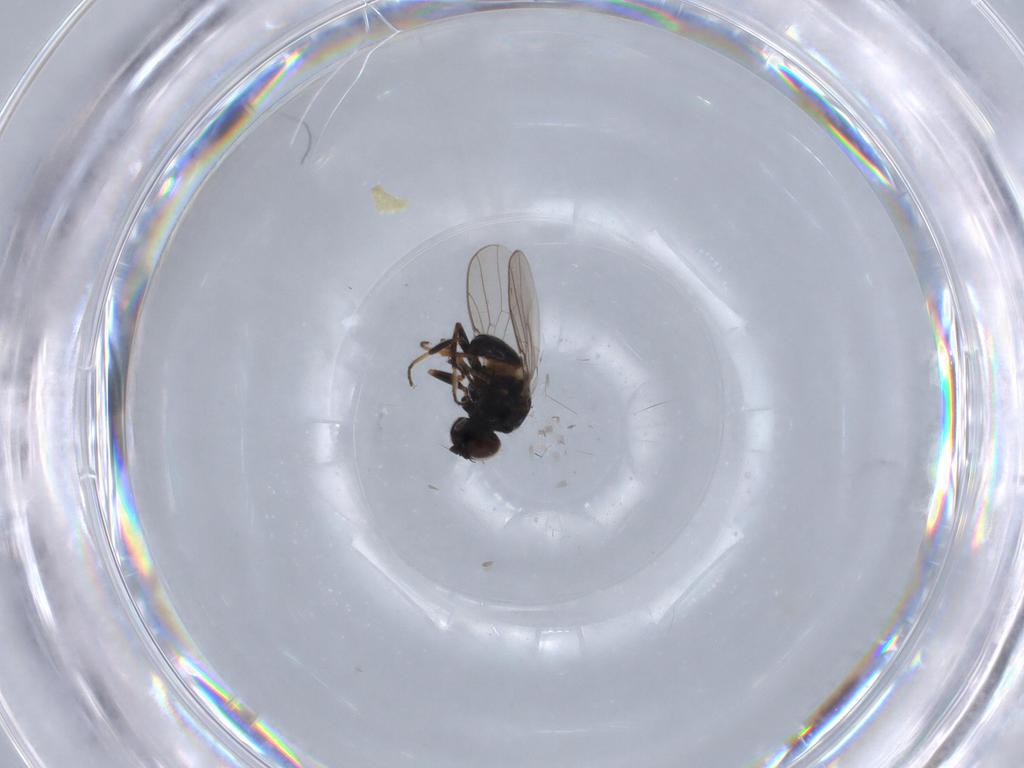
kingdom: Animalia
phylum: Arthropoda
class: Insecta
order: Diptera
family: Chloropidae
